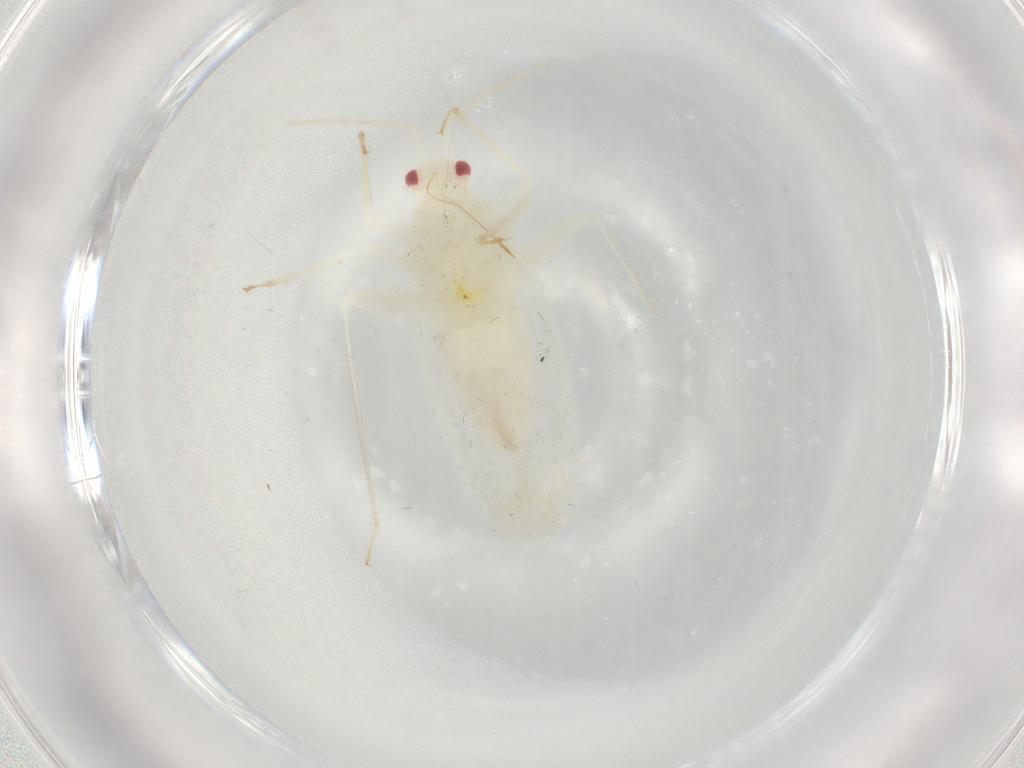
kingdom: Animalia
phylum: Arthropoda
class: Insecta
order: Hemiptera
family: Miridae
